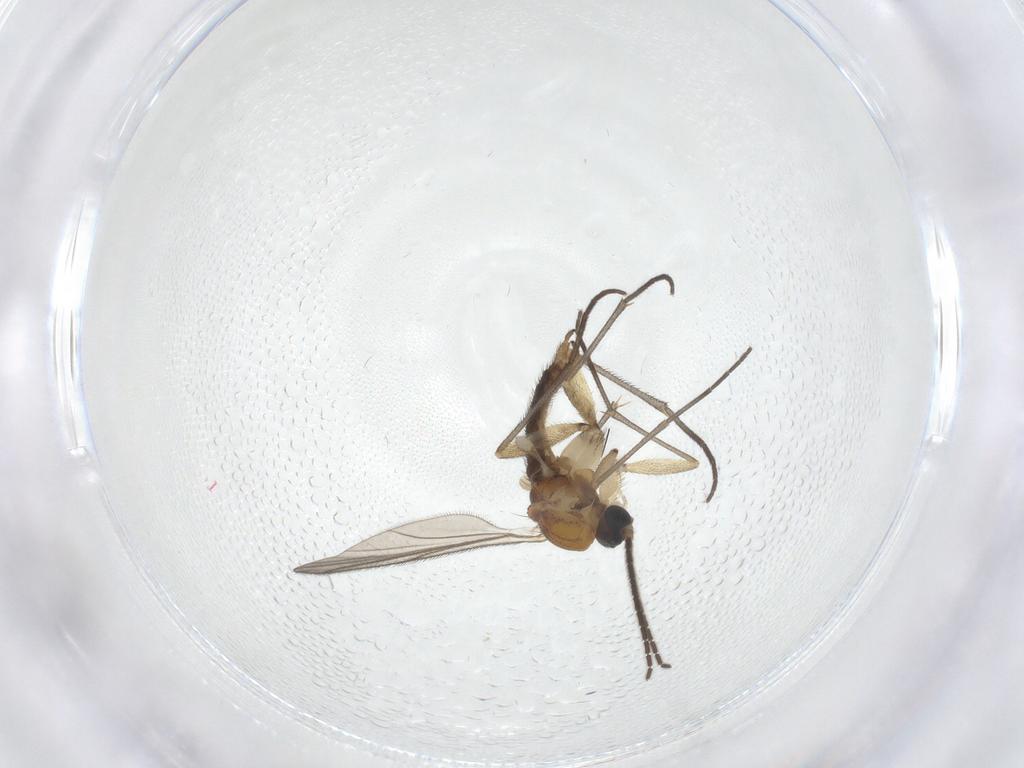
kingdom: Animalia
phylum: Arthropoda
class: Insecta
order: Diptera
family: Sciaridae
